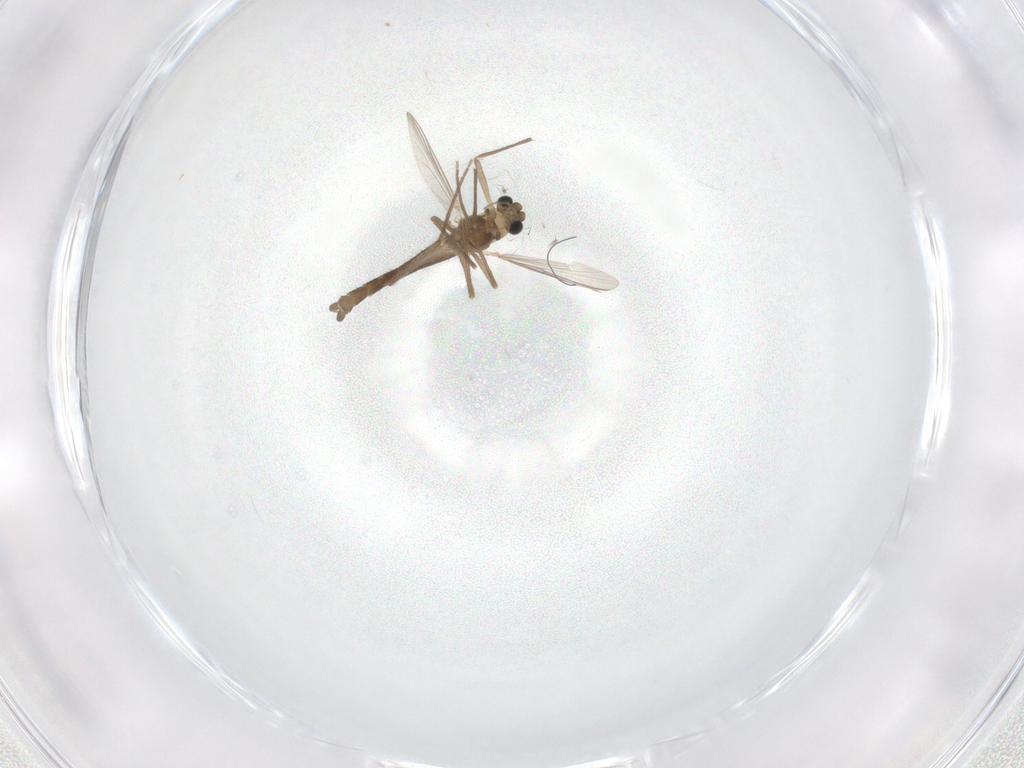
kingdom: Animalia
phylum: Arthropoda
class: Insecta
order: Diptera
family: Chironomidae
